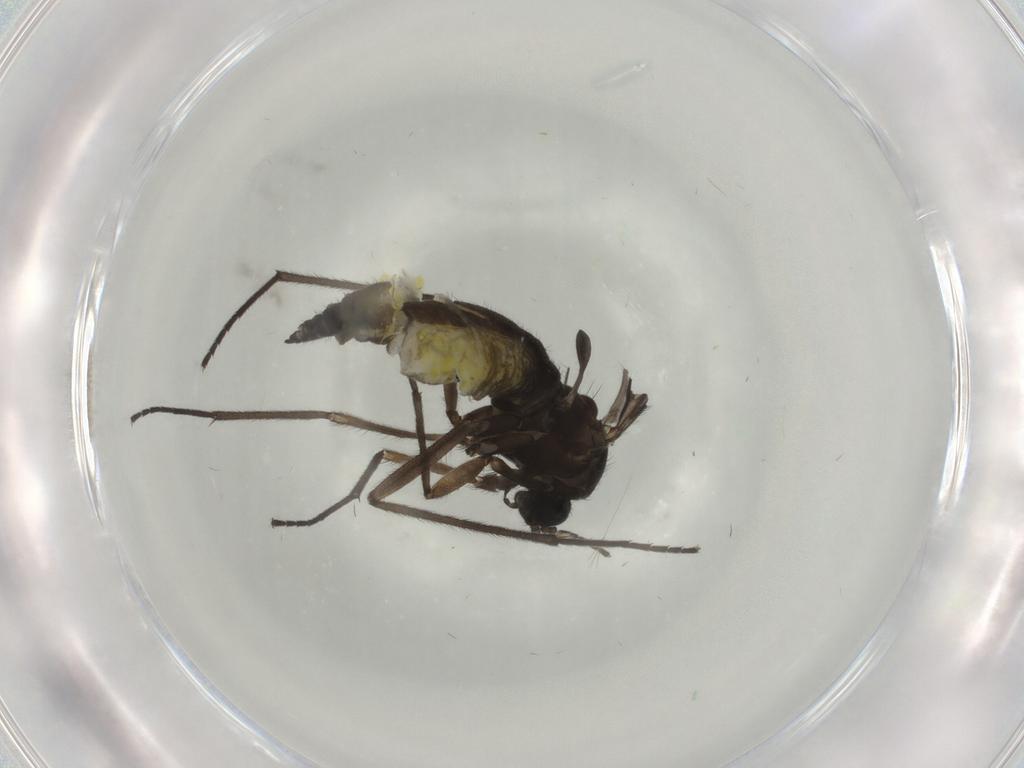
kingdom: Animalia
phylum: Arthropoda
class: Insecta
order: Diptera
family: Sciaridae
